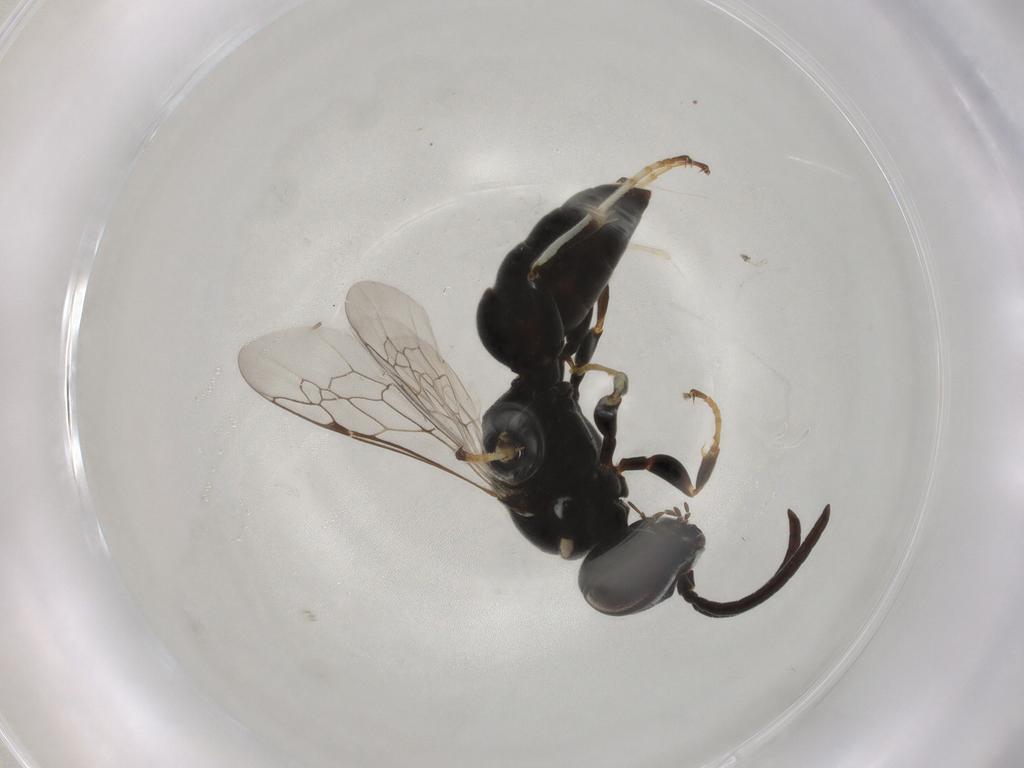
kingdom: Animalia
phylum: Arthropoda
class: Insecta
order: Hymenoptera
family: Crabronidae
